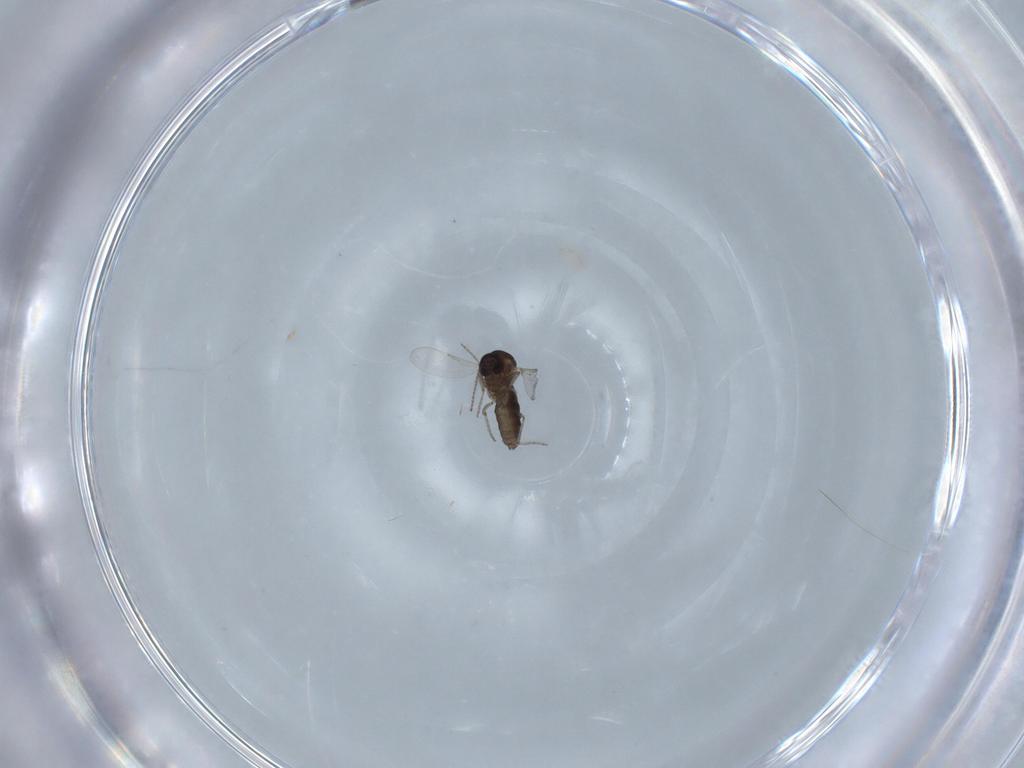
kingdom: Animalia
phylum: Arthropoda
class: Insecta
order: Diptera
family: Ceratopogonidae
